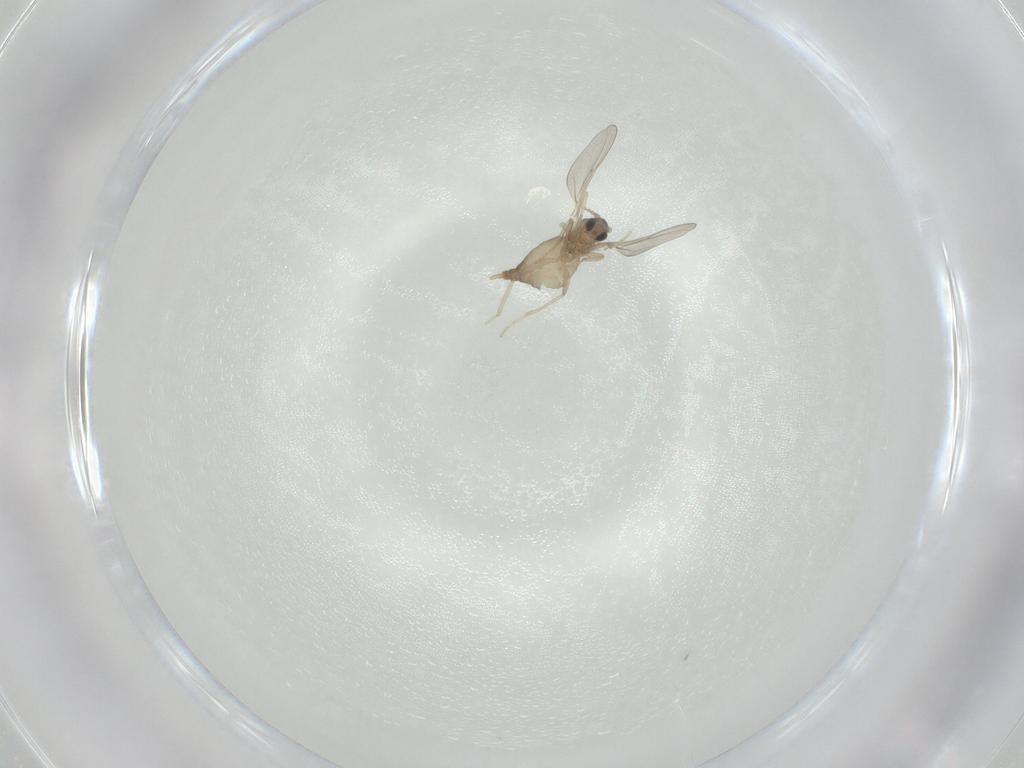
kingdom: Animalia
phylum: Arthropoda
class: Insecta
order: Diptera
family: Cecidomyiidae
